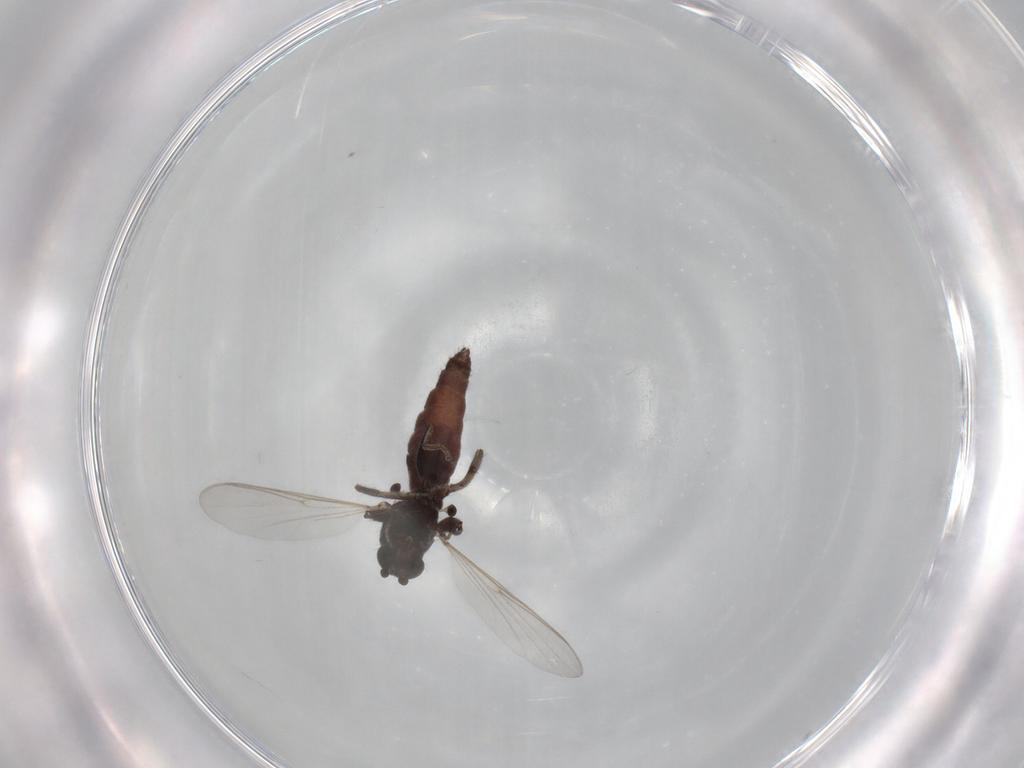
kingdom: Animalia
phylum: Arthropoda
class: Insecta
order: Diptera
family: Ceratopogonidae
